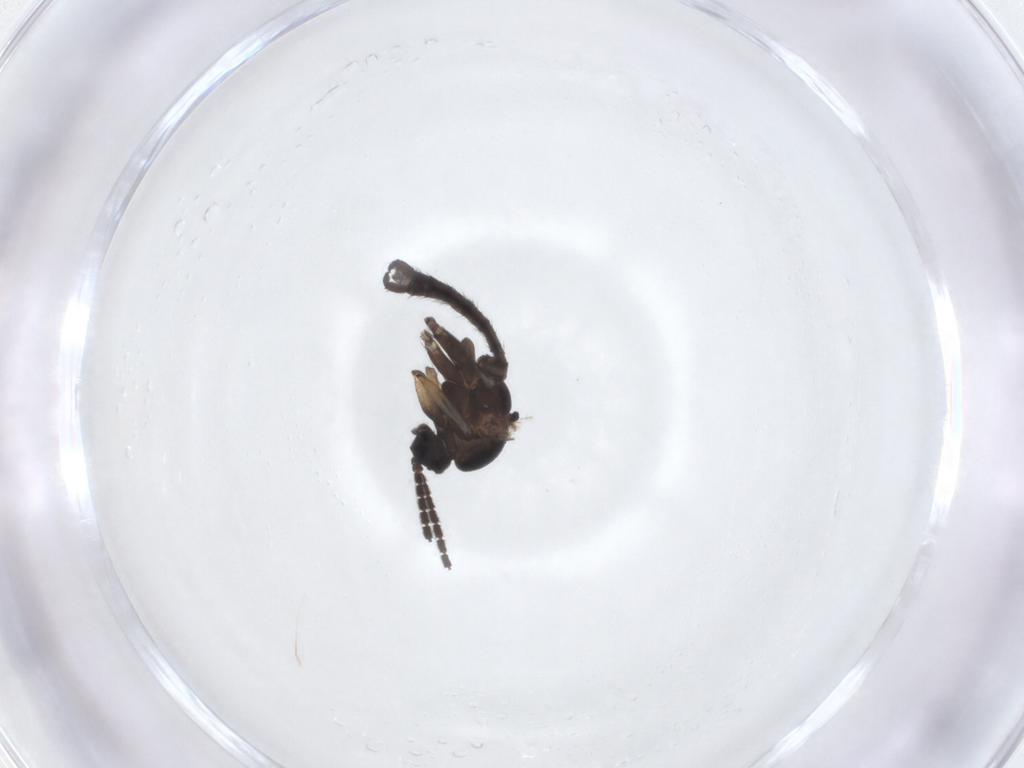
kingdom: Animalia
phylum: Arthropoda
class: Insecta
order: Diptera
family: Sciaridae
